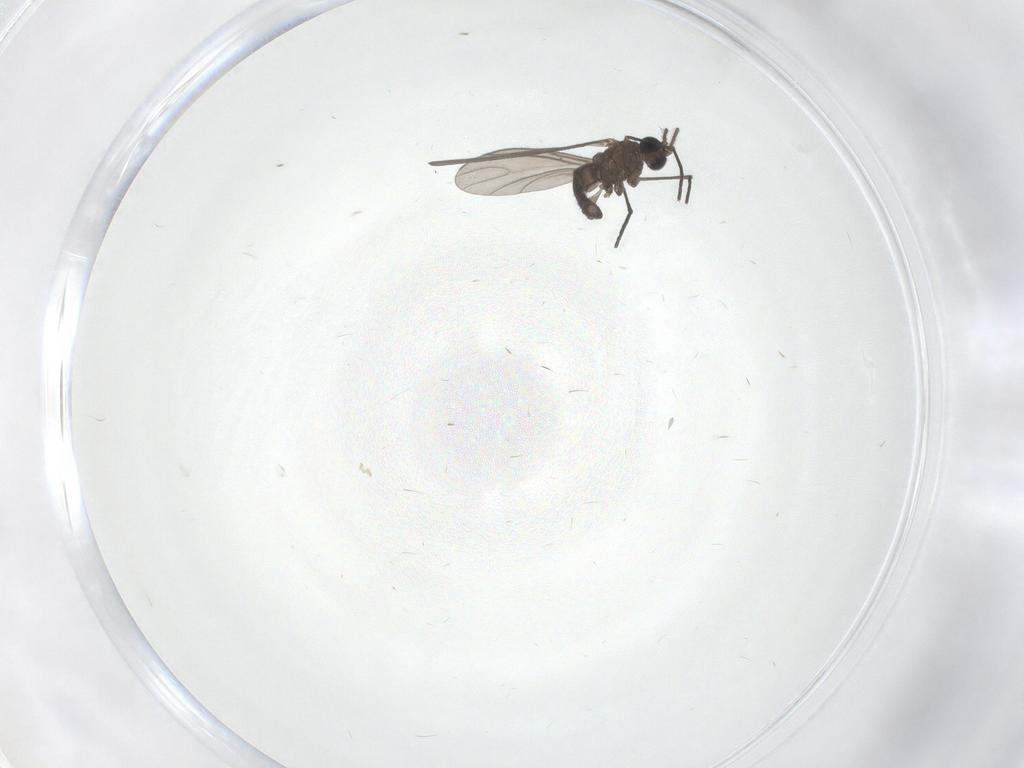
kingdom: Animalia
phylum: Arthropoda
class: Insecta
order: Diptera
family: Sciaridae
